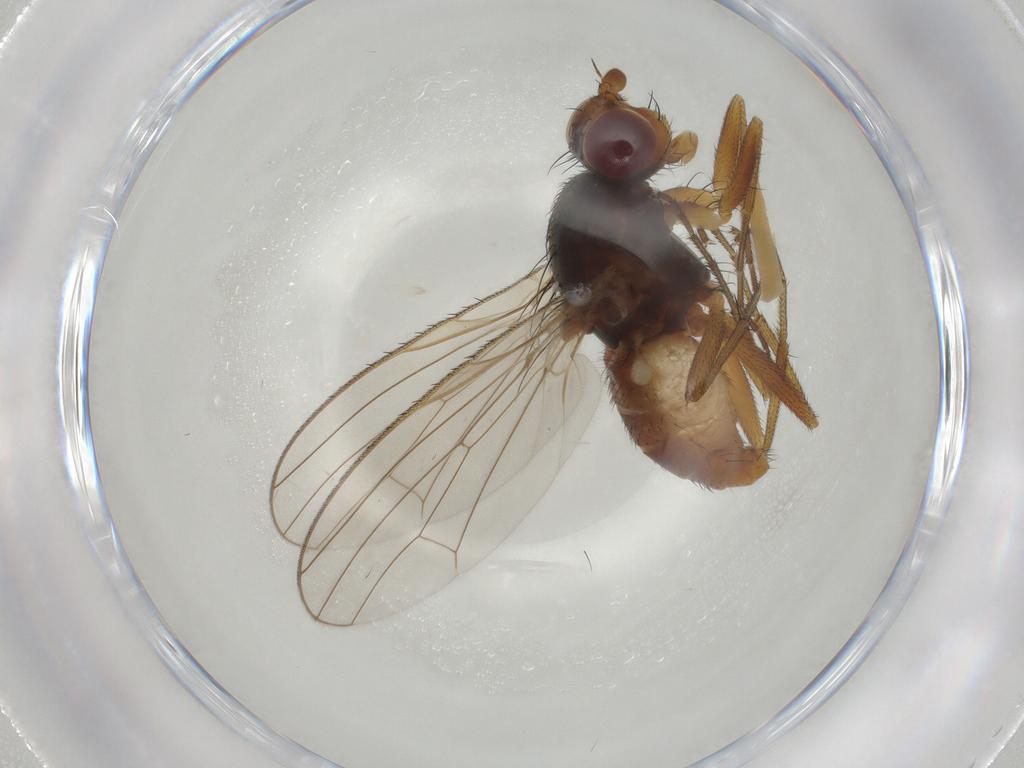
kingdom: Animalia
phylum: Arthropoda
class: Insecta
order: Diptera
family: Heleomyzidae
